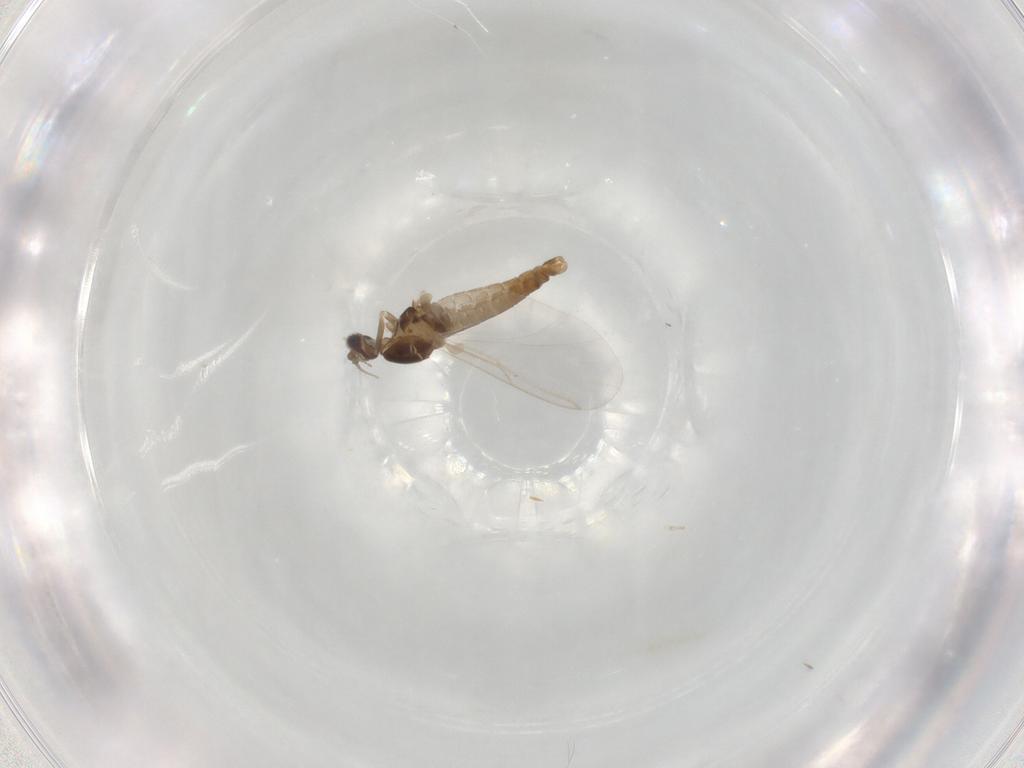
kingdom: Animalia
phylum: Arthropoda
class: Insecta
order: Diptera
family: Cecidomyiidae
